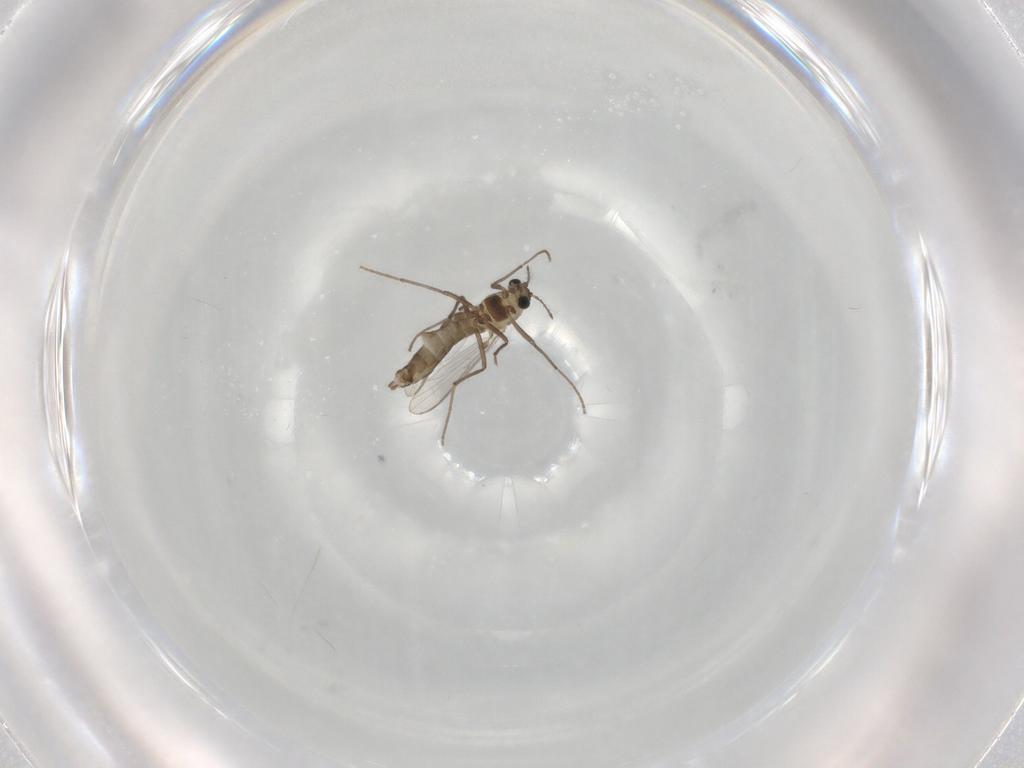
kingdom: Animalia
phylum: Arthropoda
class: Insecta
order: Diptera
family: Chironomidae
